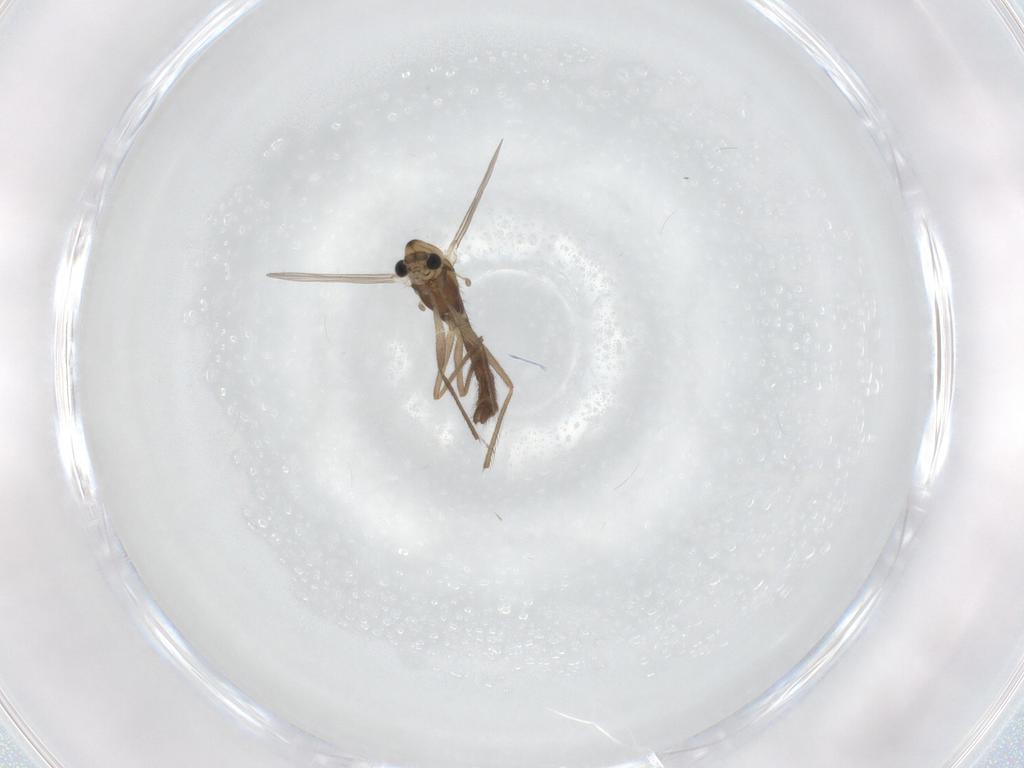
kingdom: Animalia
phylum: Arthropoda
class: Insecta
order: Diptera
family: Chironomidae
